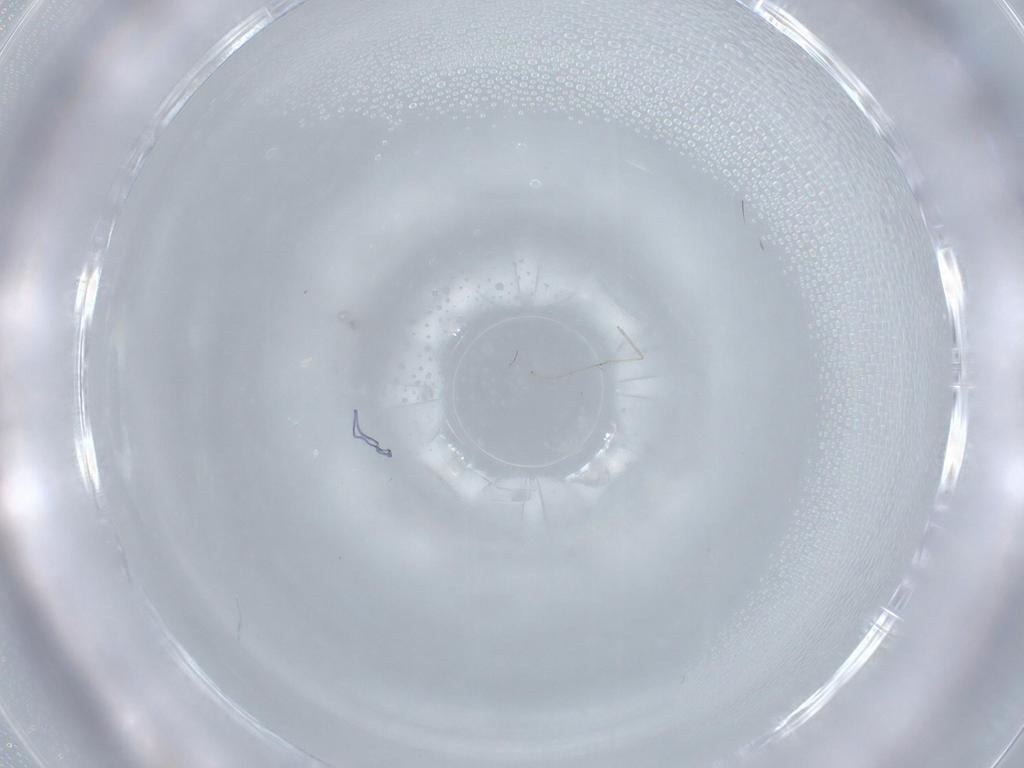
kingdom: Animalia
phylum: Arthropoda
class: Insecta
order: Diptera
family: Cecidomyiidae
